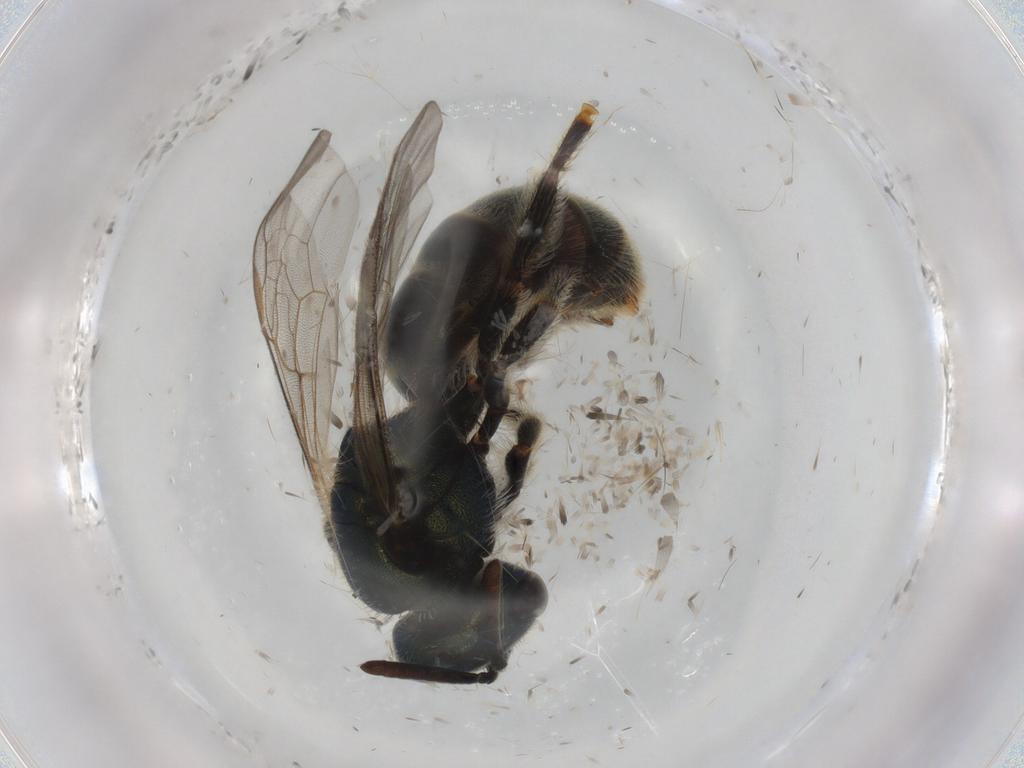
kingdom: Animalia
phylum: Arthropoda
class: Insecta
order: Hymenoptera
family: Halictidae
